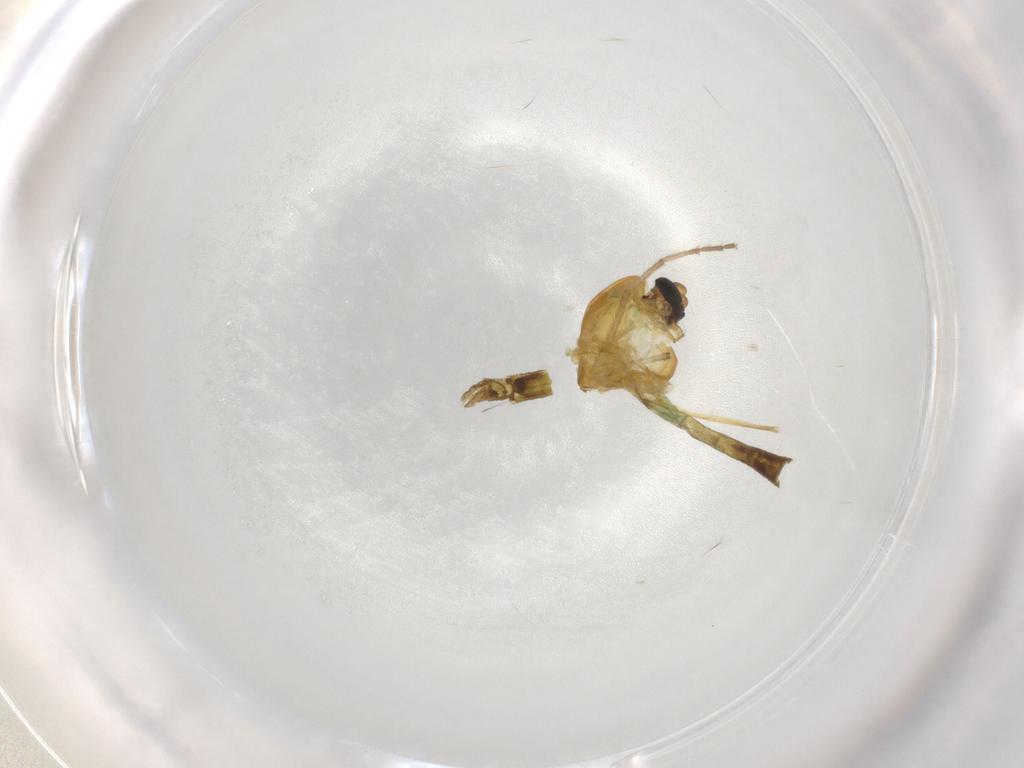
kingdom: Animalia
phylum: Arthropoda
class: Insecta
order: Diptera
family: Chironomidae
